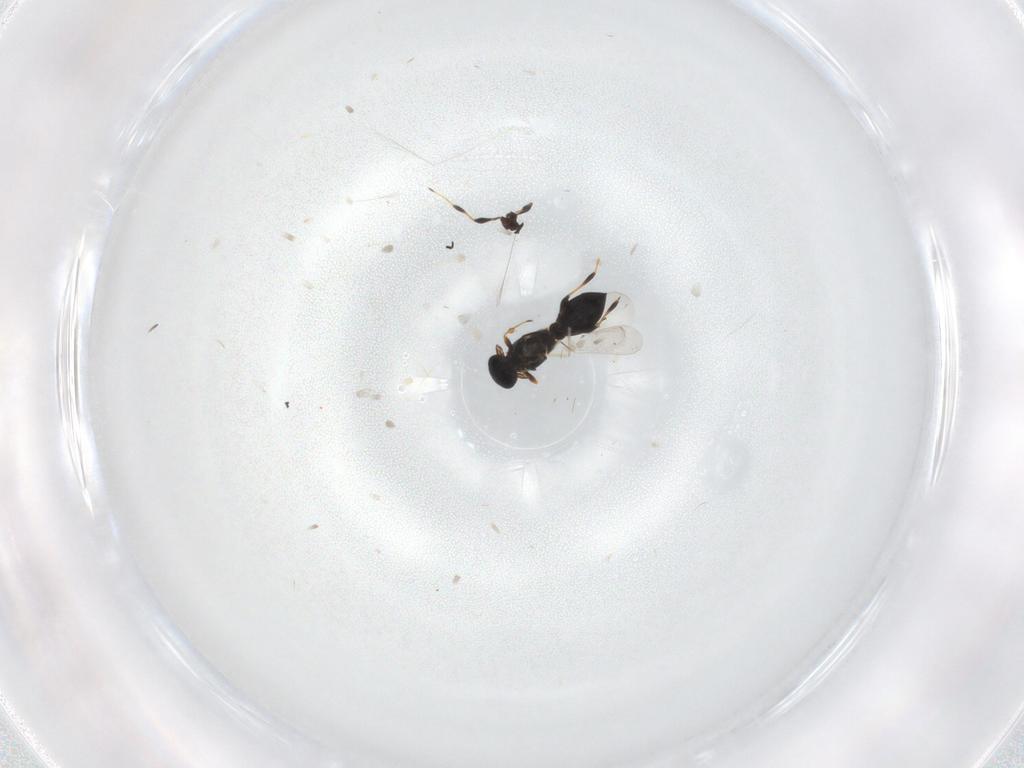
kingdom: Animalia
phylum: Arthropoda
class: Insecta
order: Hymenoptera
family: Platygastridae
